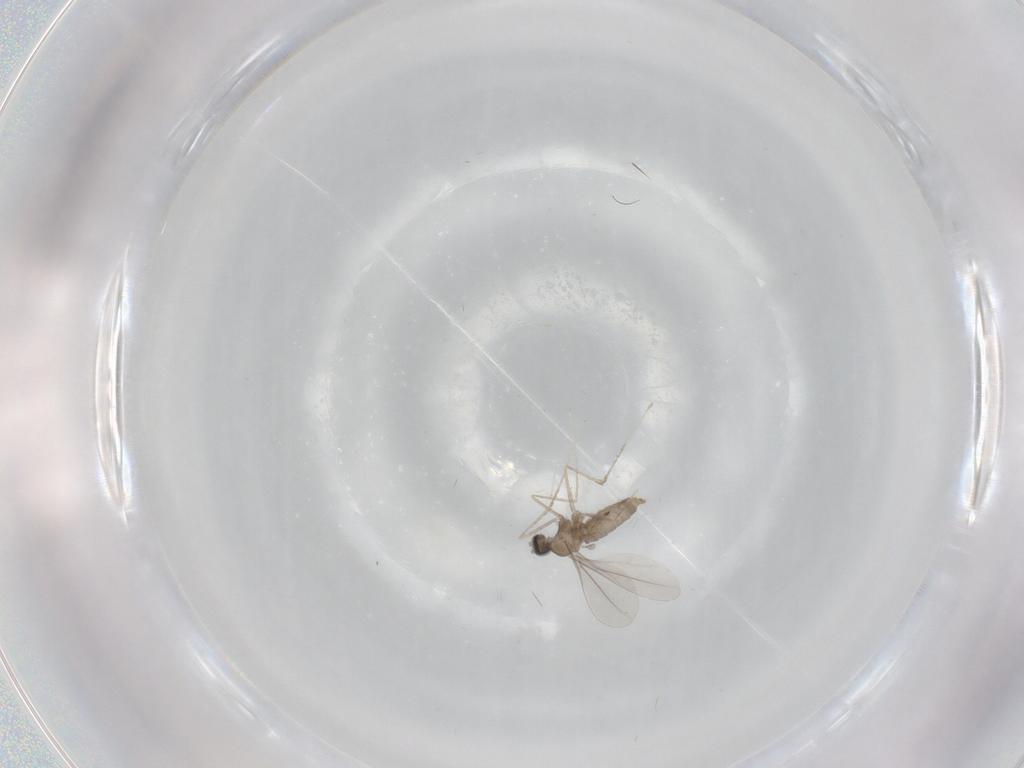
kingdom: Animalia
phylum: Arthropoda
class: Insecta
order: Diptera
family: Cecidomyiidae
